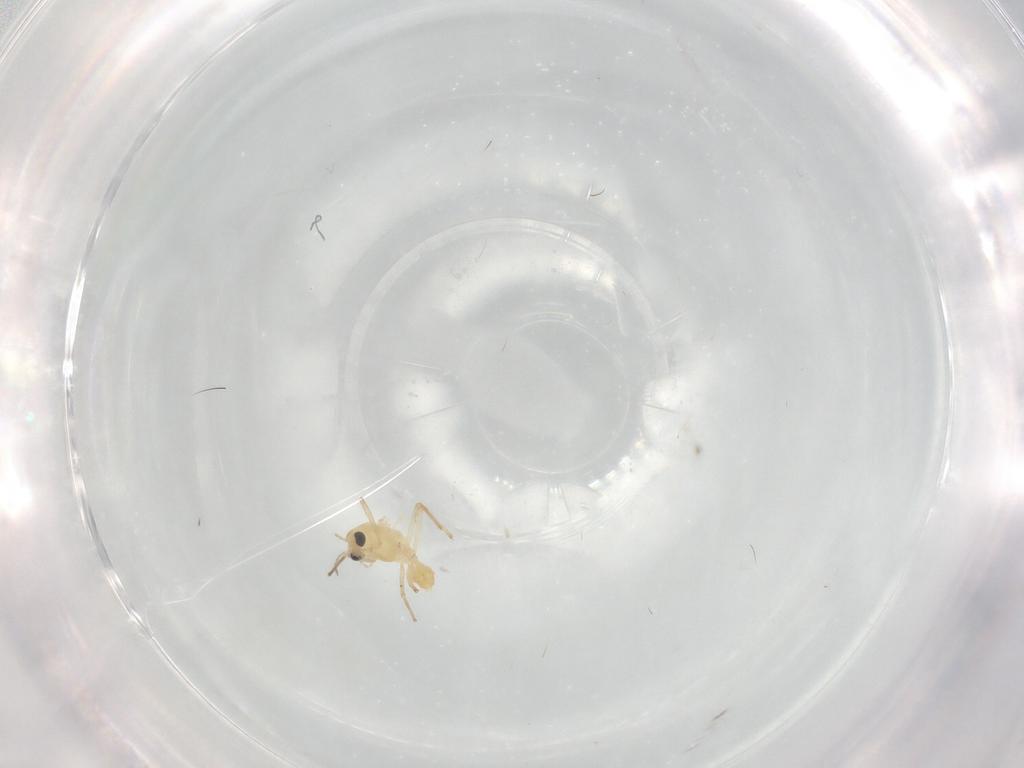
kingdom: Animalia
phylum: Arthropoda
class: Insecta
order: Diptera
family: Chironomidae
